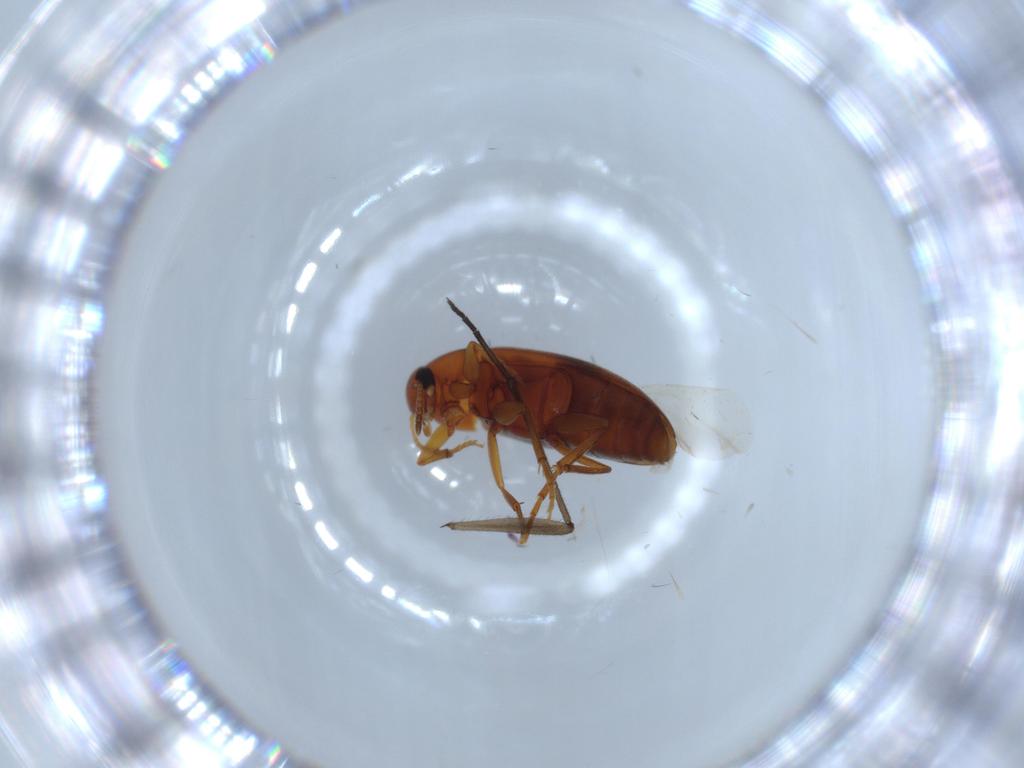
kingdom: Animalia
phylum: Arthropoda
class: Insecta
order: Coleoptera
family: Scraptiidae
